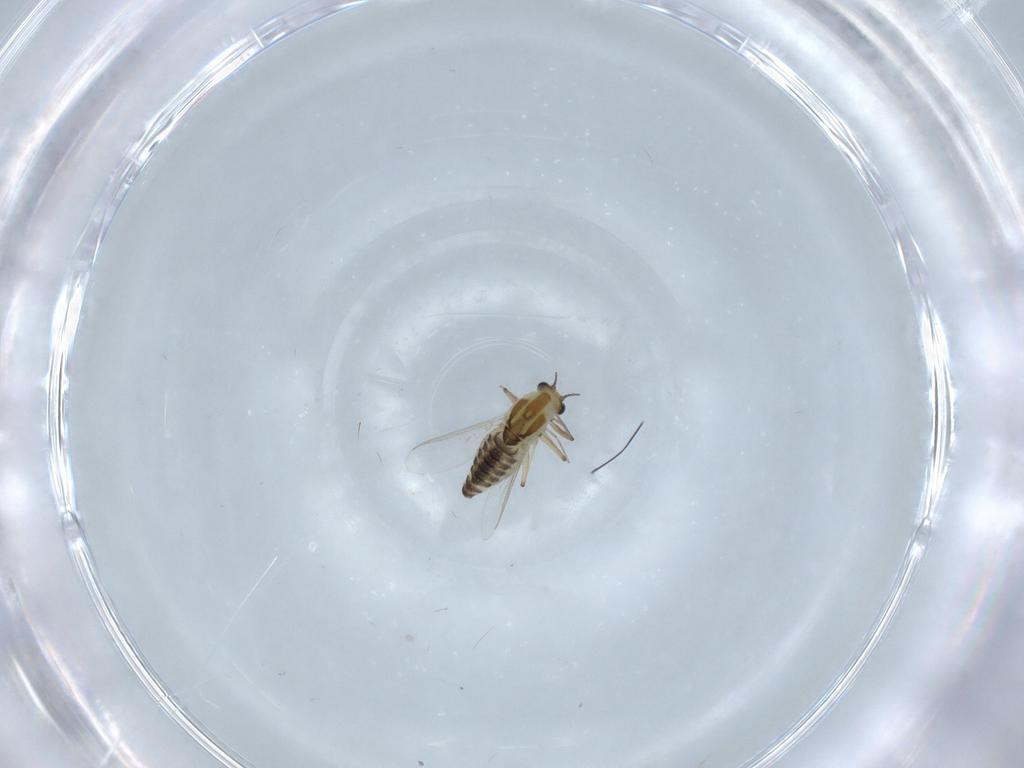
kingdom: Animalia
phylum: Arthropoda
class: Insecta
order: Diptera
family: Chironomidae
